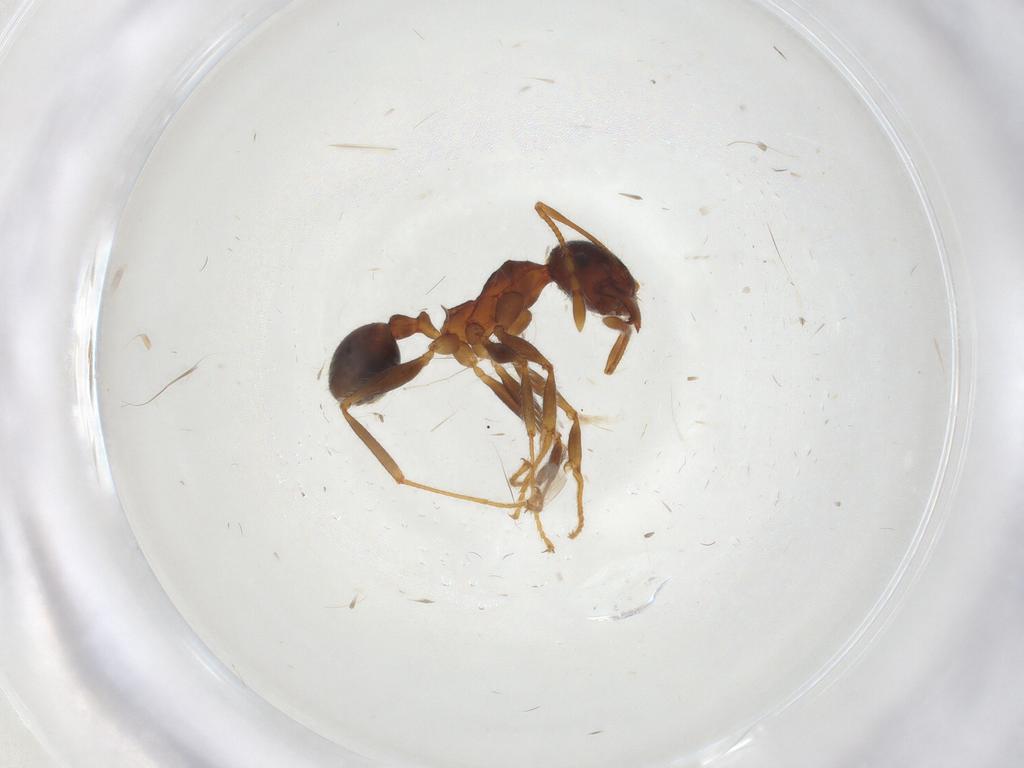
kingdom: Animalia
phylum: Arthropoda
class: Insecta
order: Hymenoptera
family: Formicidae
